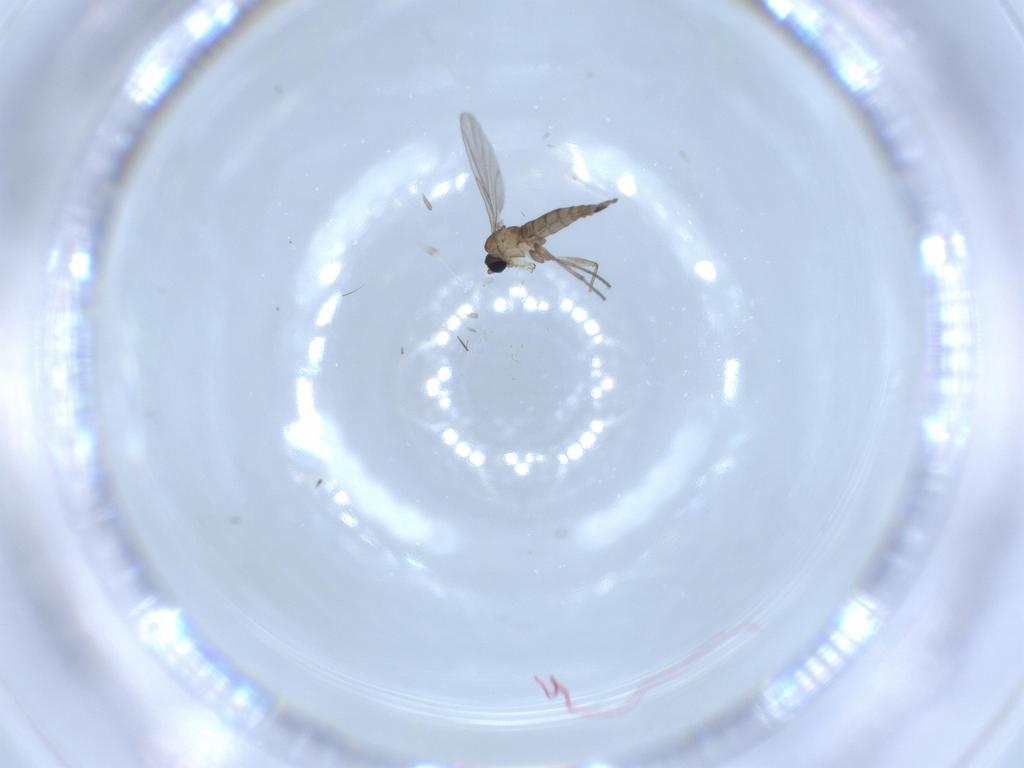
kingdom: Animalia
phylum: Arthropoda
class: Insecta
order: Diptera
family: Sciaridae
